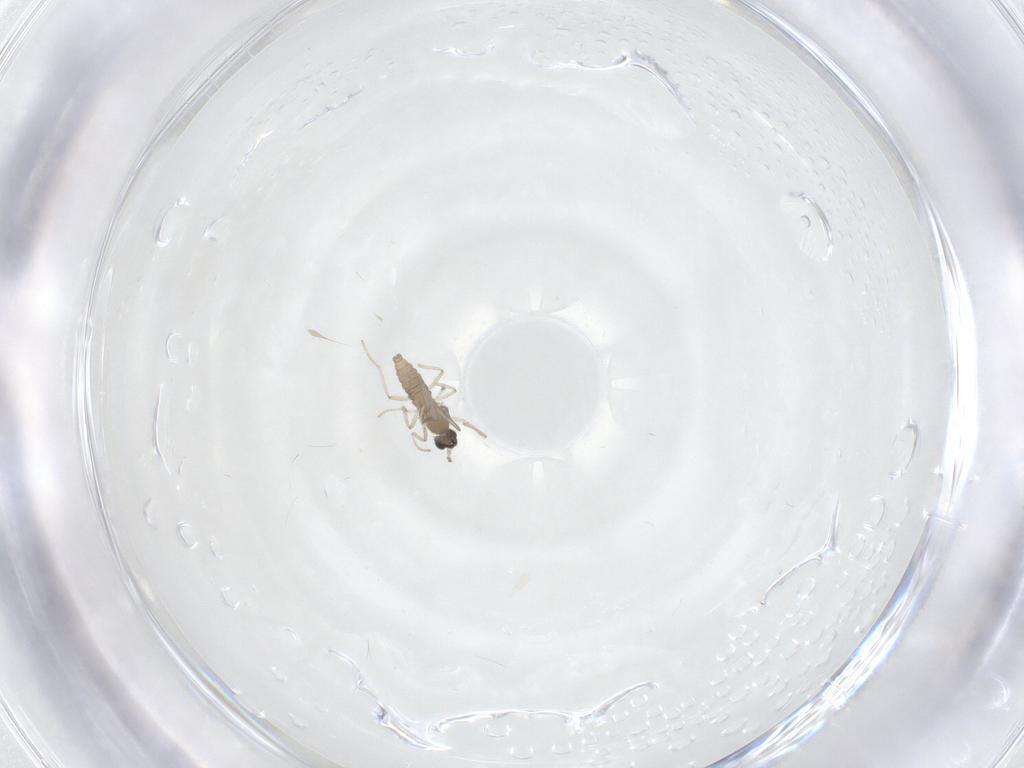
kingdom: Animalia
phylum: Arthropoda
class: Insecta
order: Diptera
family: Cecidomyiidae
